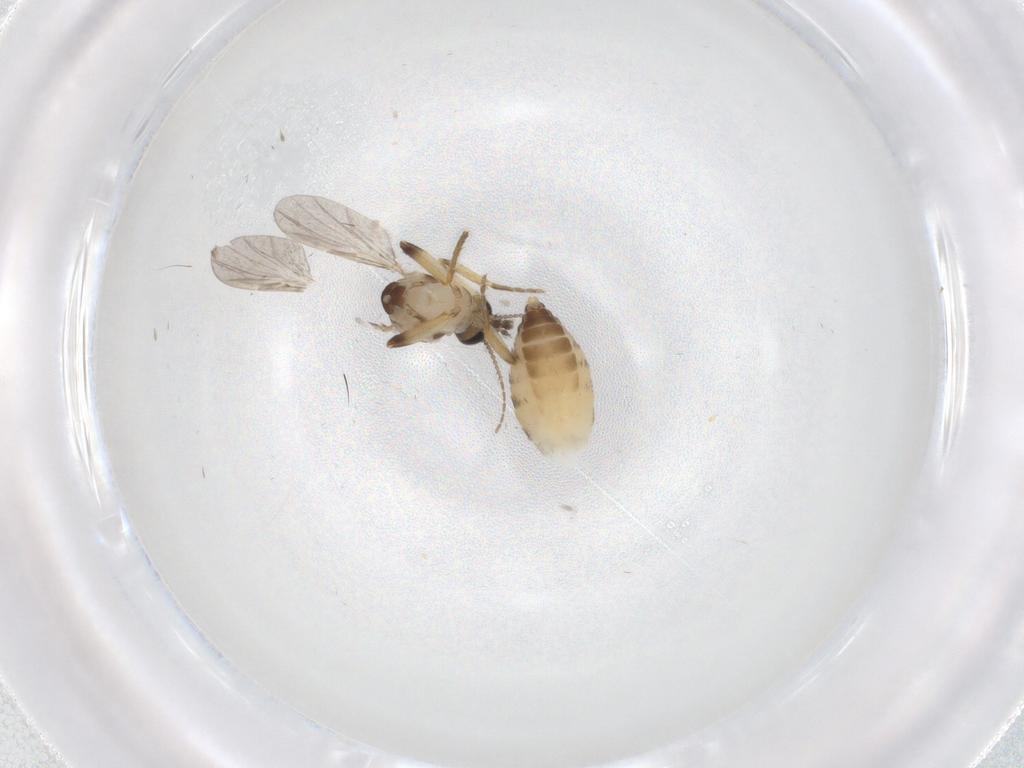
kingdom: Animalia
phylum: Arthropoda
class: Insecta
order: Diptera
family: Ceratopogonidae
